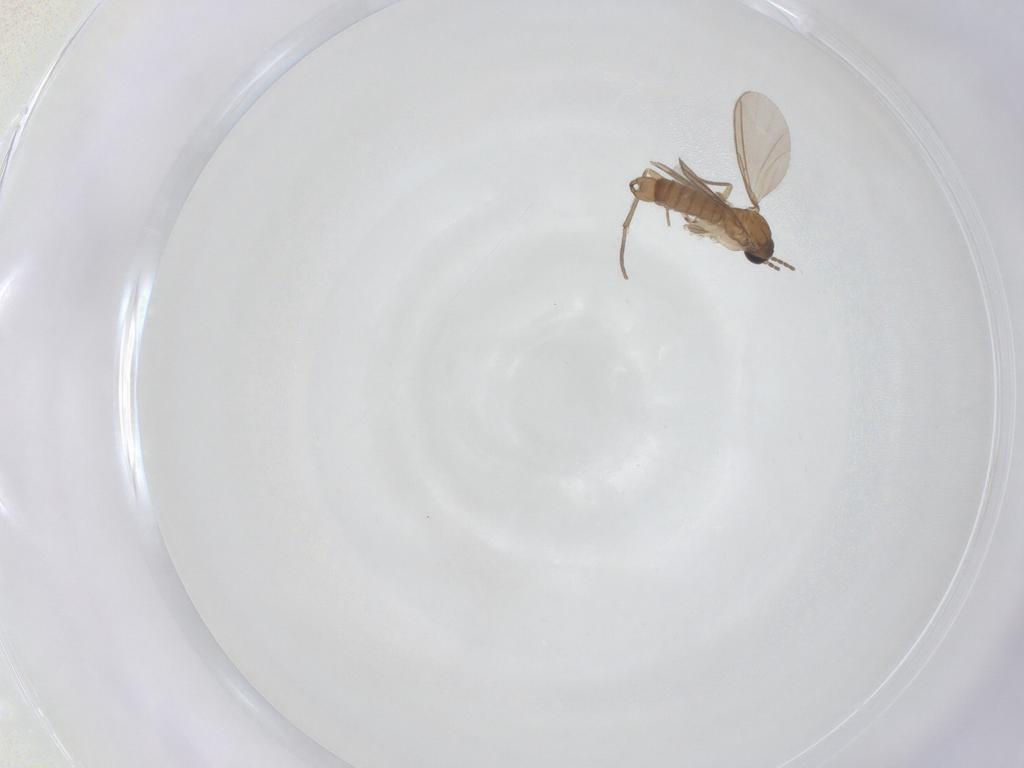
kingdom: Animalia
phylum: Arthropoda
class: Insecta
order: Diptera
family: Sciaridae
